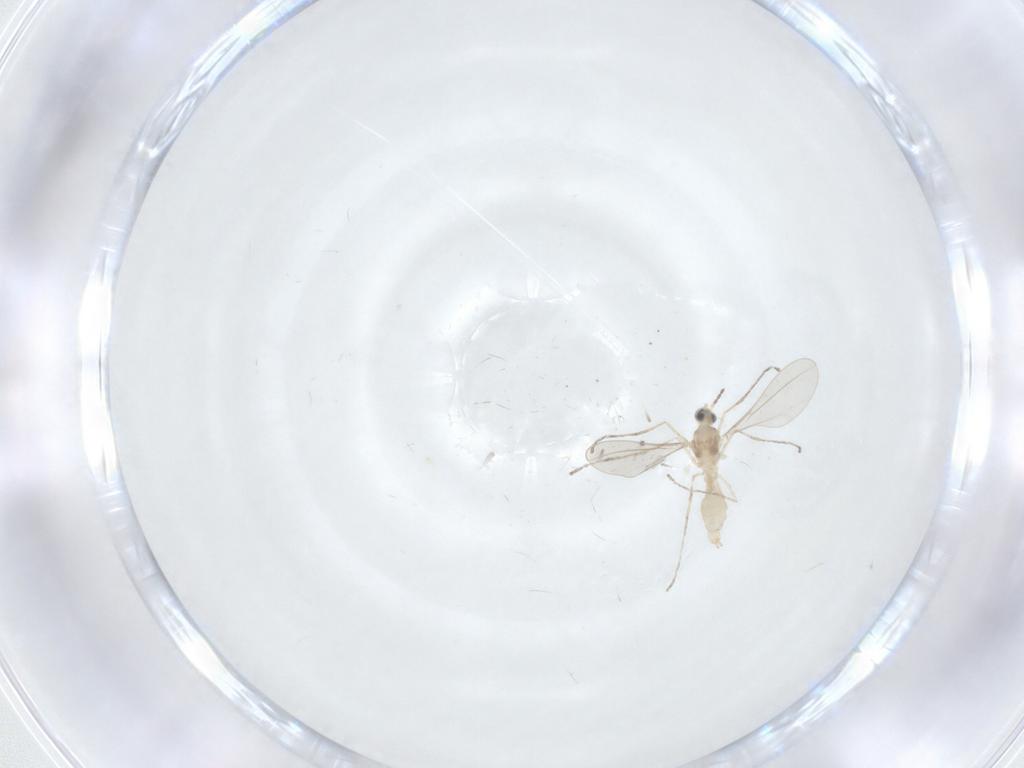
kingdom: Animalia
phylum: Arthropoda
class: Insecta
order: Diptera
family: Cecidomyiidae
